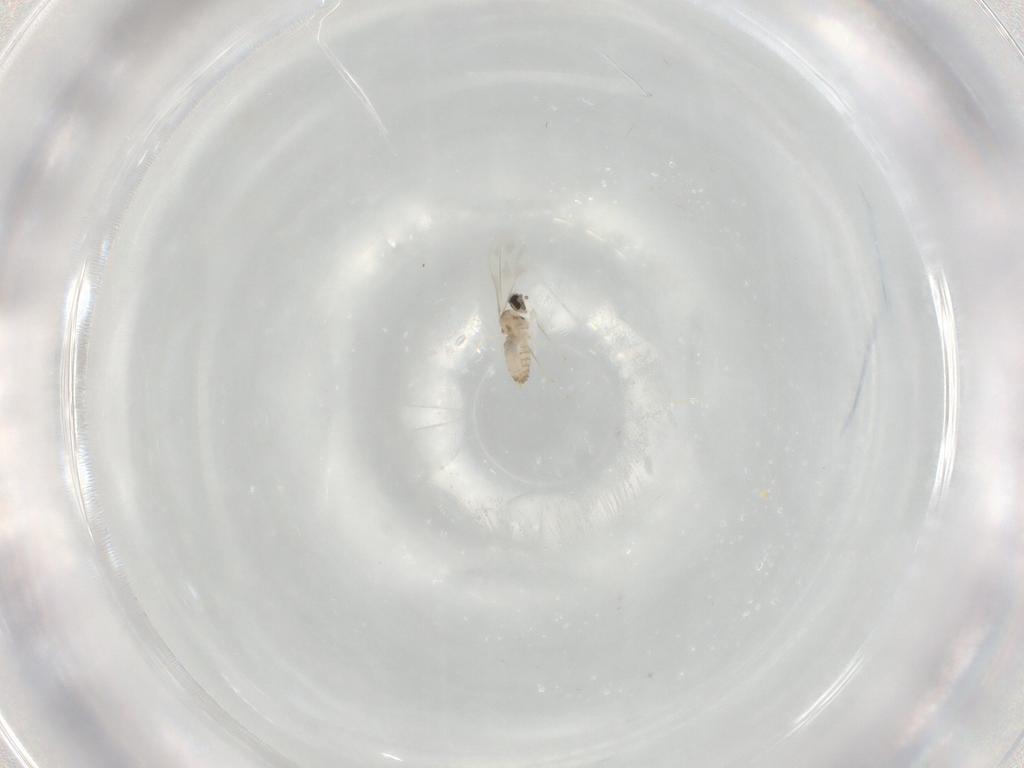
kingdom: Animalia
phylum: Arthropoda
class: Insecta
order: Diptera
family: Cecidomyiidae
